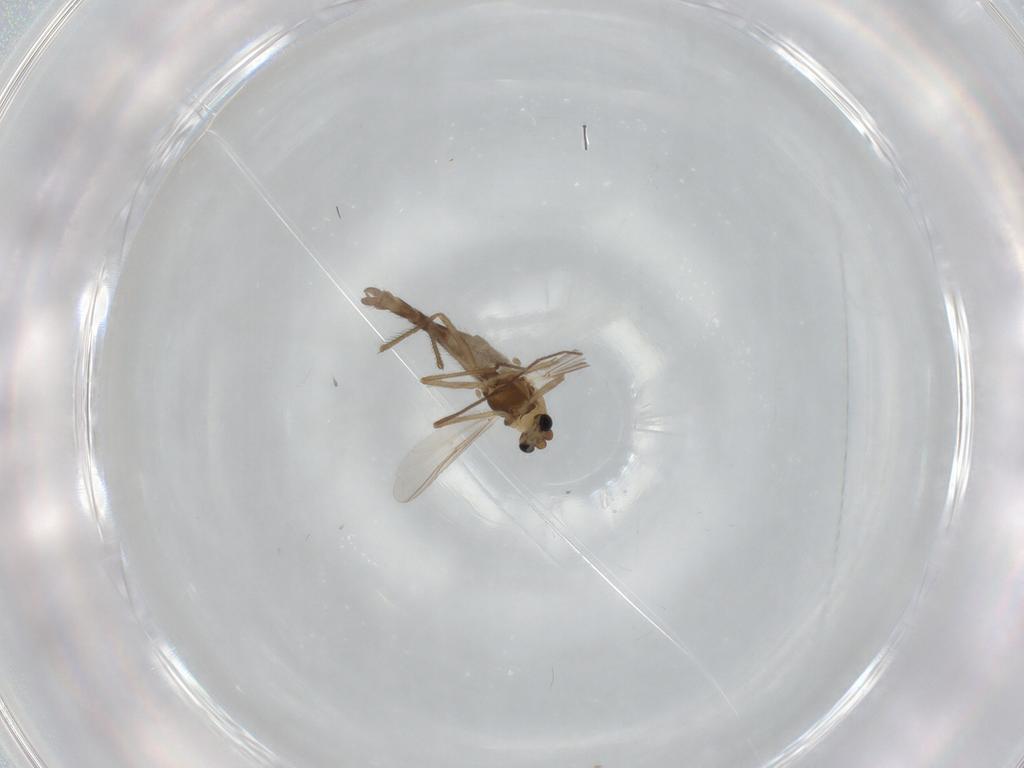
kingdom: Animalia
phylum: Arthropoda
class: Insecta
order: Diptera
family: Chironomidae
